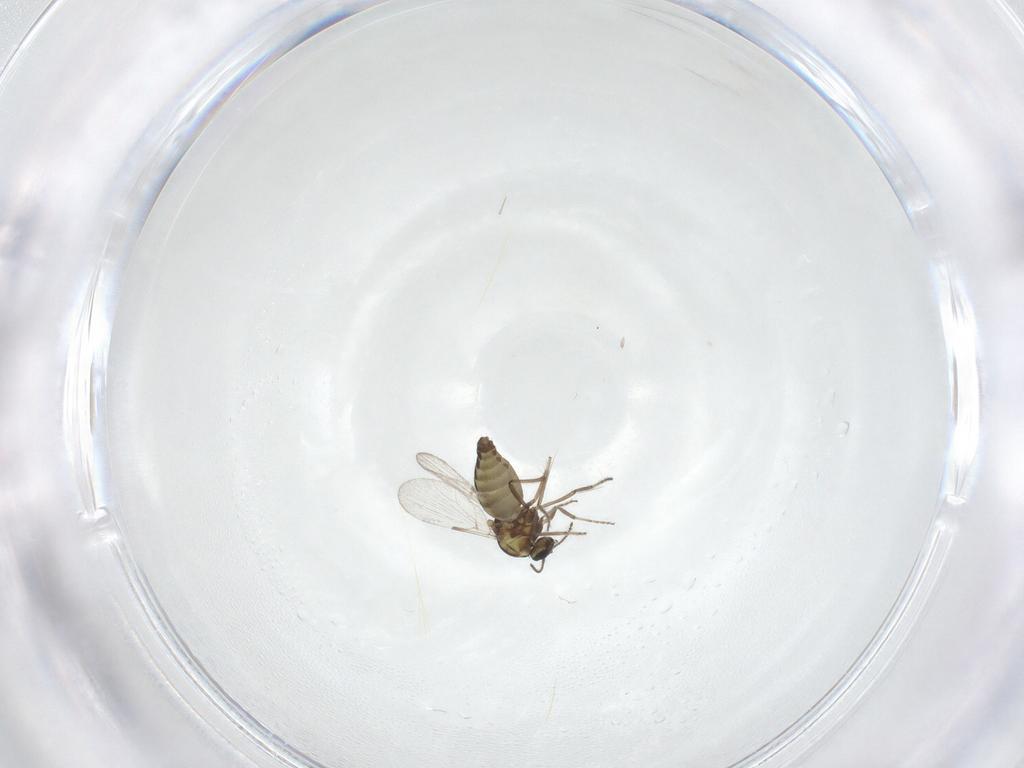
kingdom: Animalia
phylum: Arthropoda
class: Insecta
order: Diptera
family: Ceratopogonidae
